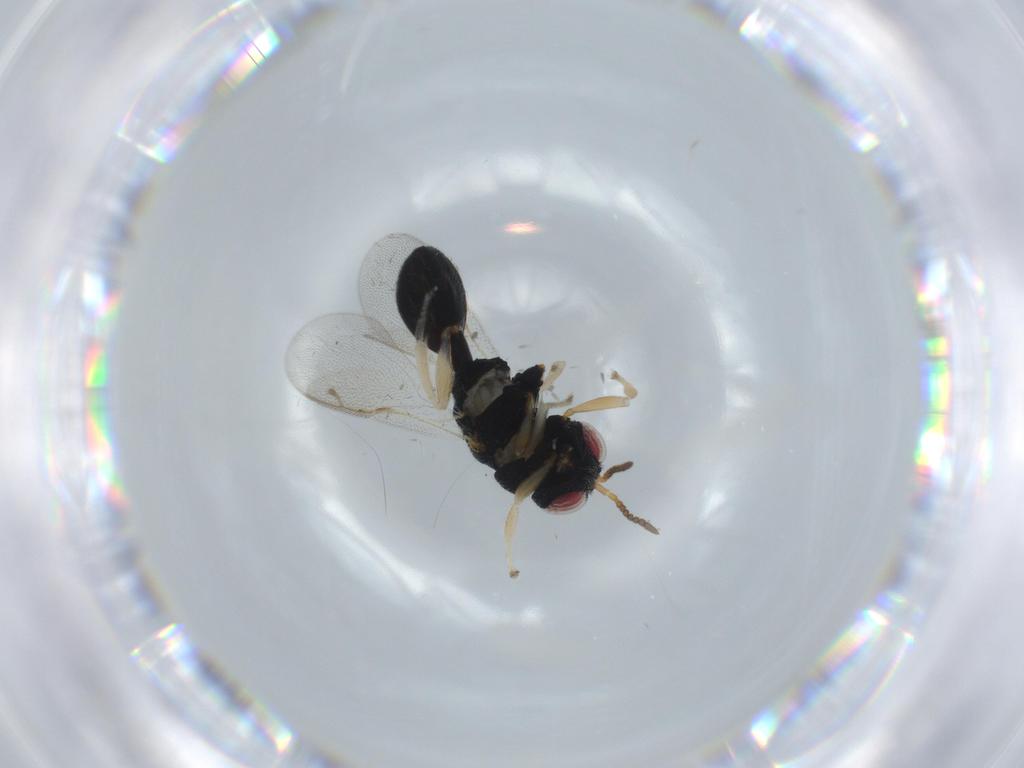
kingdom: Animalia
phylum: Arthropoda
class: Insecta
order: Hymenoptera
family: Eurytomidae
